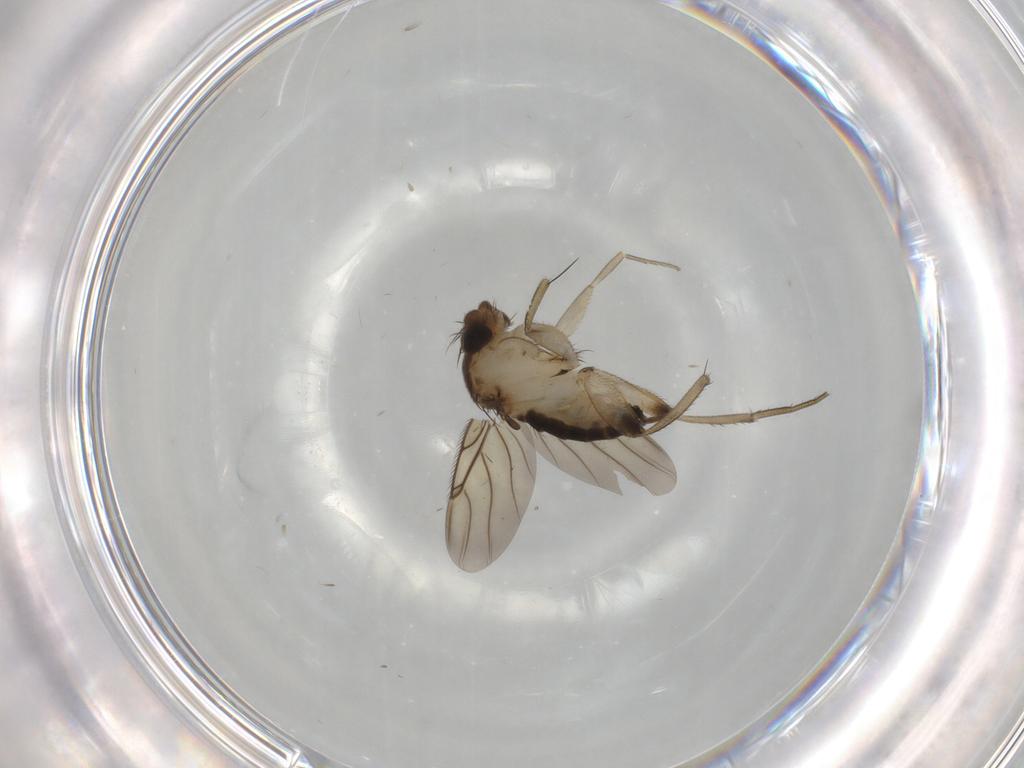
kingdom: Animalia
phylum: Arthropoda
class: Insecta
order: Diptera
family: Phoridae
